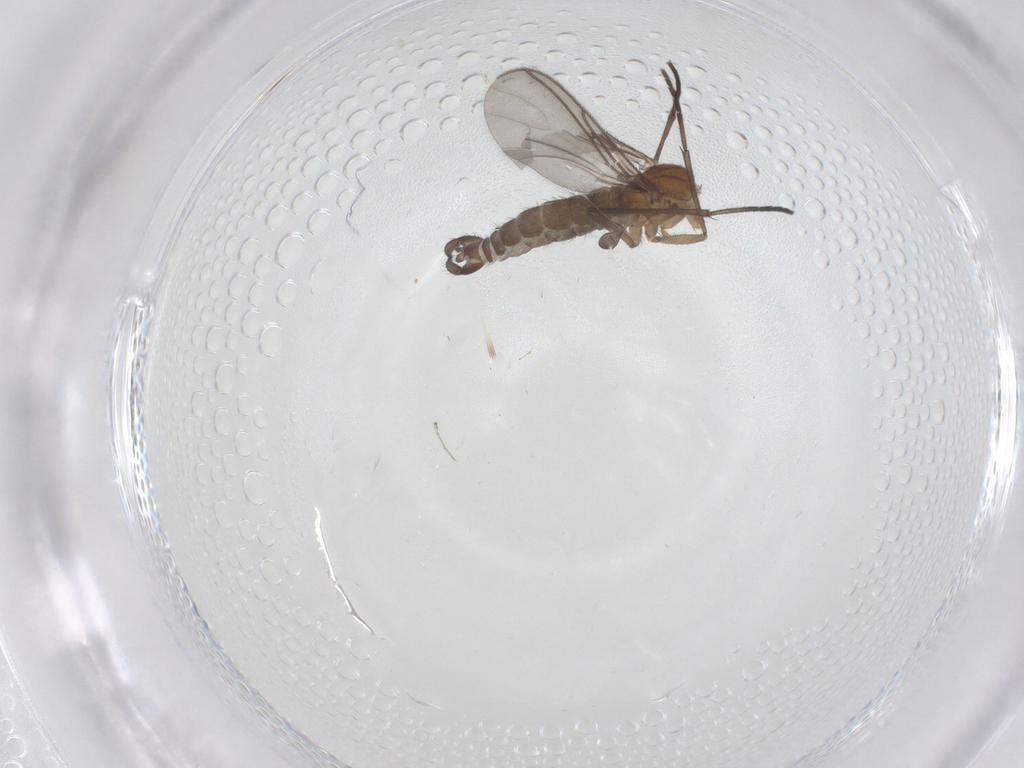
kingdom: Animalia
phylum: Arthropoda
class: Insecta
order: Diptera
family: Sciaridae
